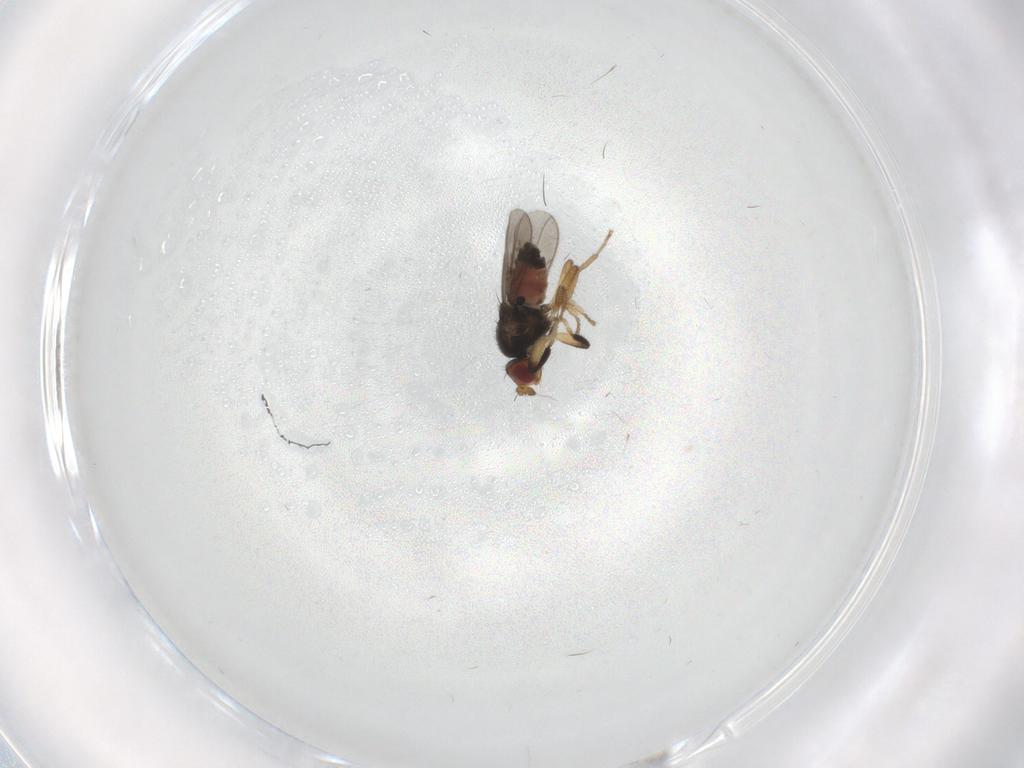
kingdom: Animalia
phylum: Arthropoda
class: Insecta
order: Diptera
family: Sphaeroceridae
